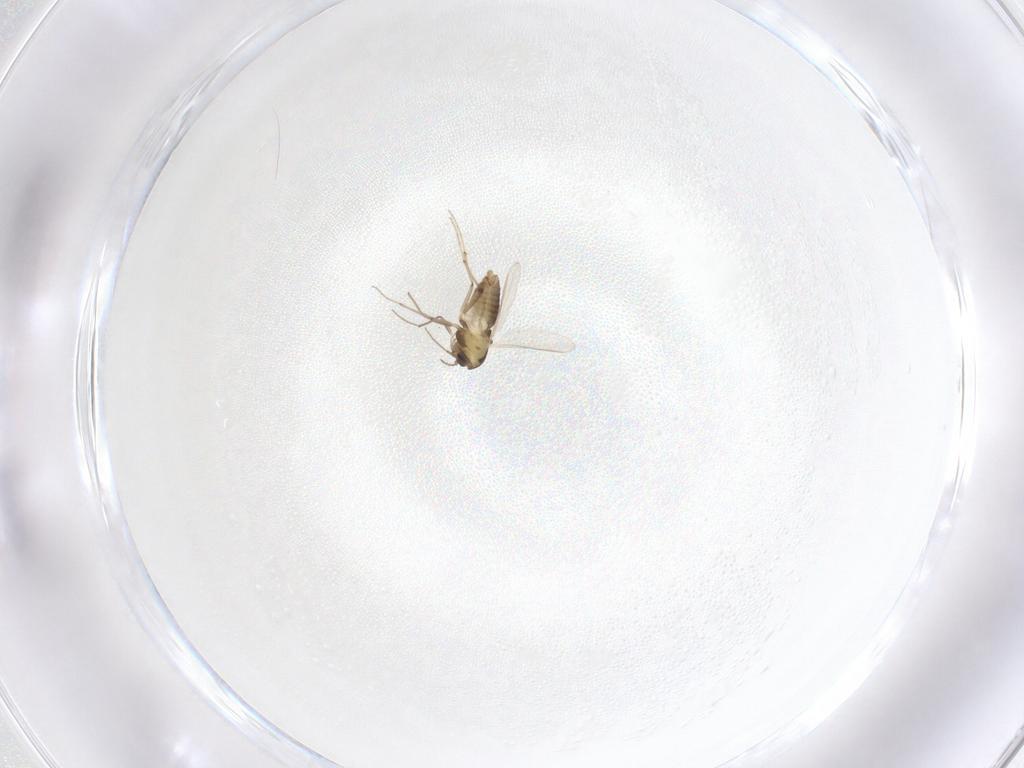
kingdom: Animalia
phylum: Arthropoda
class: Insecta
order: Diptera
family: Chironomidae
